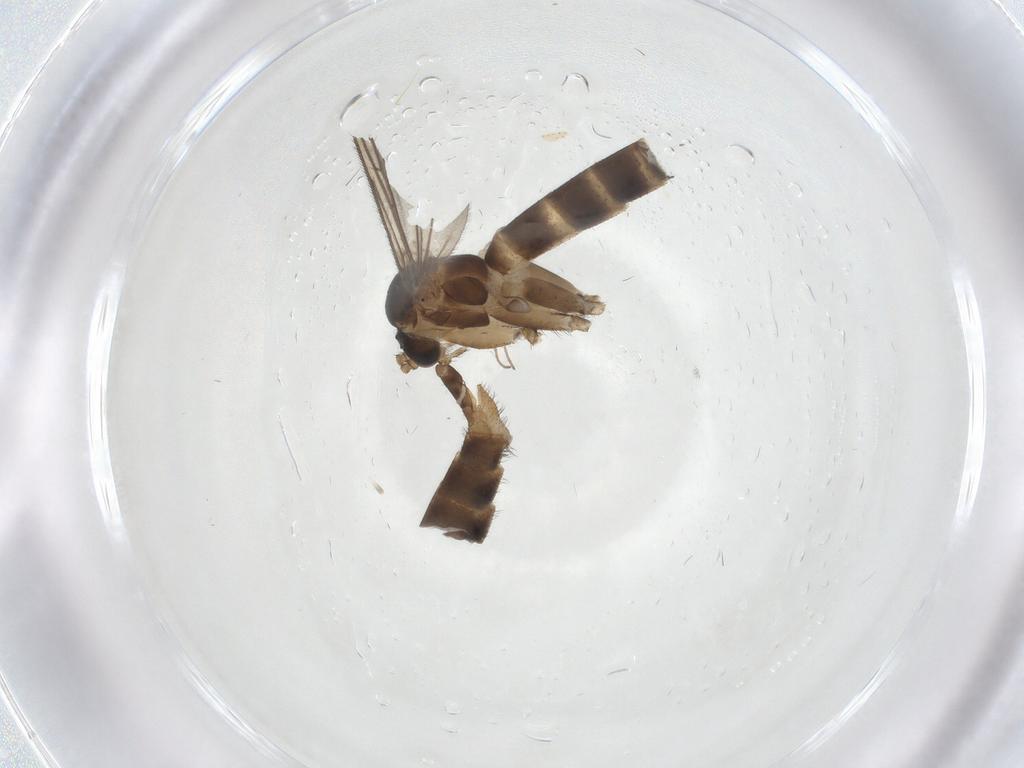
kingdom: Animalia
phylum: Arthropoda
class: Insecta
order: Diptera
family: Mycetophilidae
